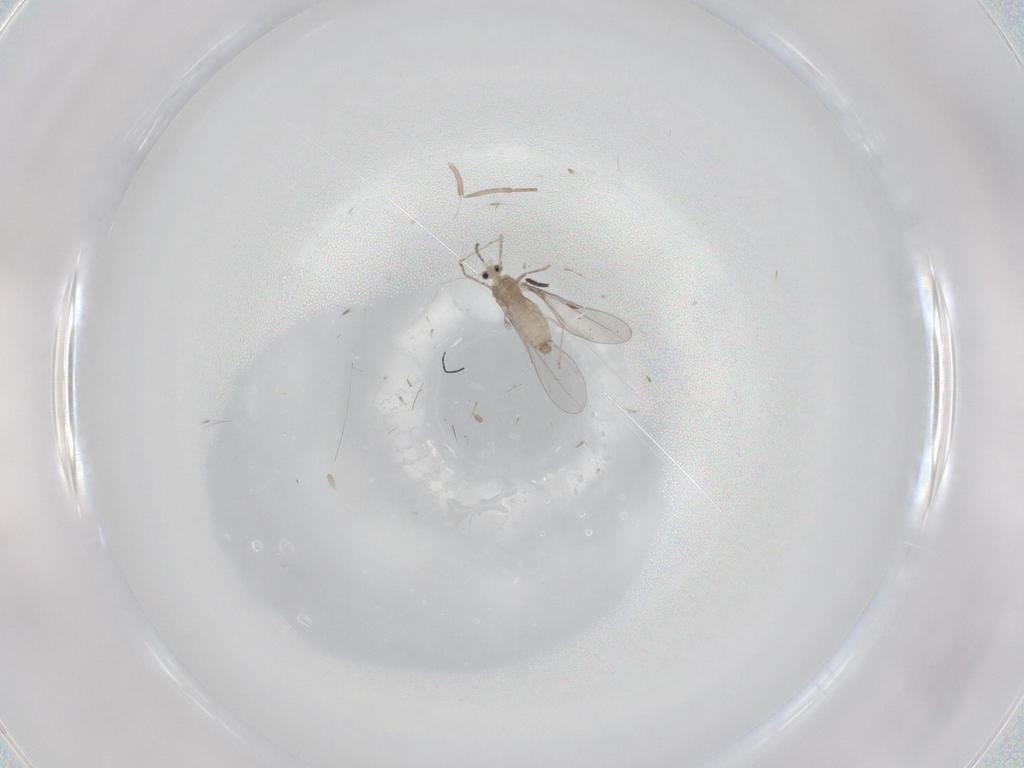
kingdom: Animalia
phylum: Arthropoda
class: Insecta
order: Diptera
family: Psychodidae
